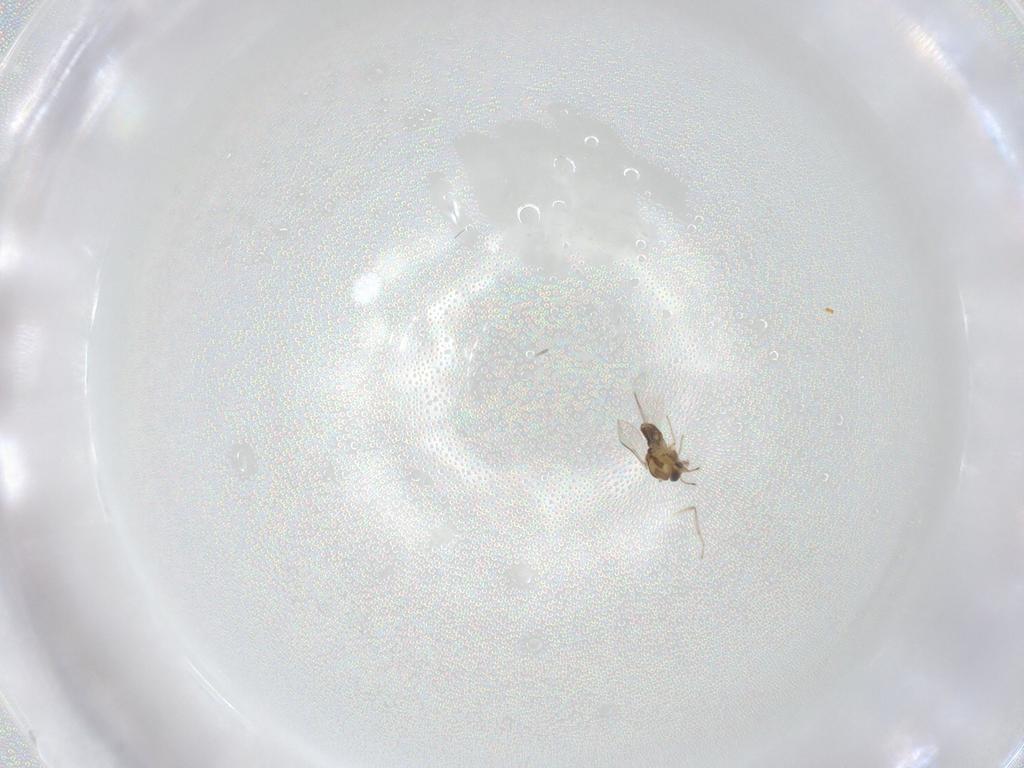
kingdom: Animalia
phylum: Arthropoda
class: Insecta
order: Diptera
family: Chironomidae
